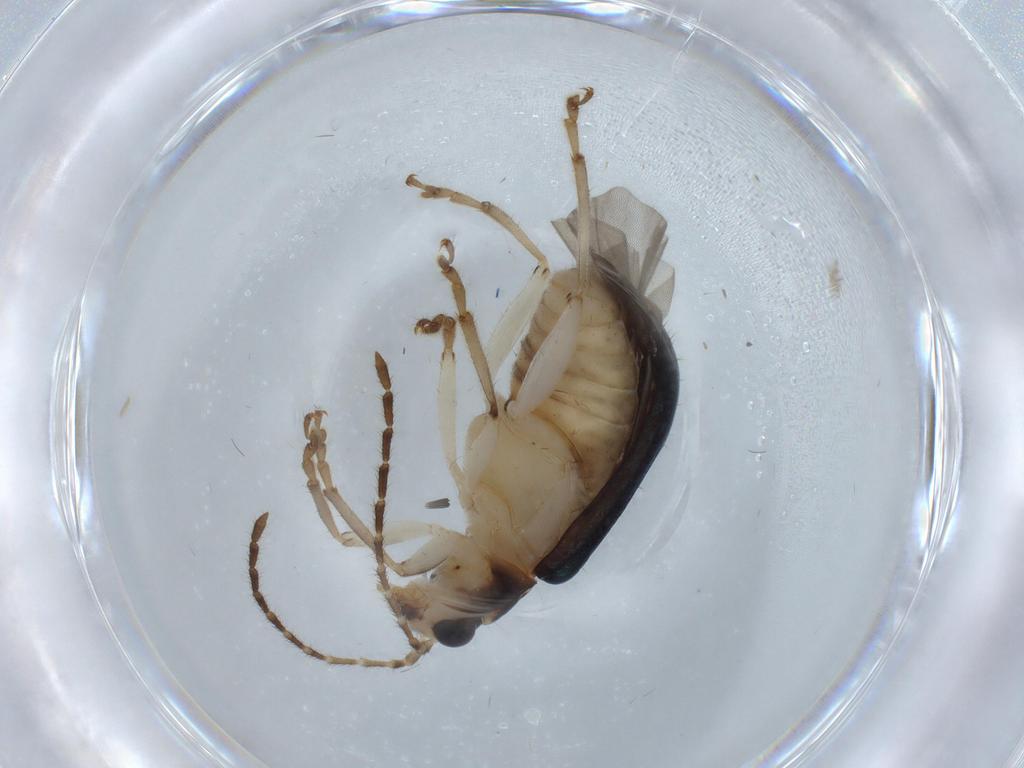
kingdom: Animalia
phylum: Arthropoda
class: Insecta
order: Coleoptera
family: Chrysomelidae
